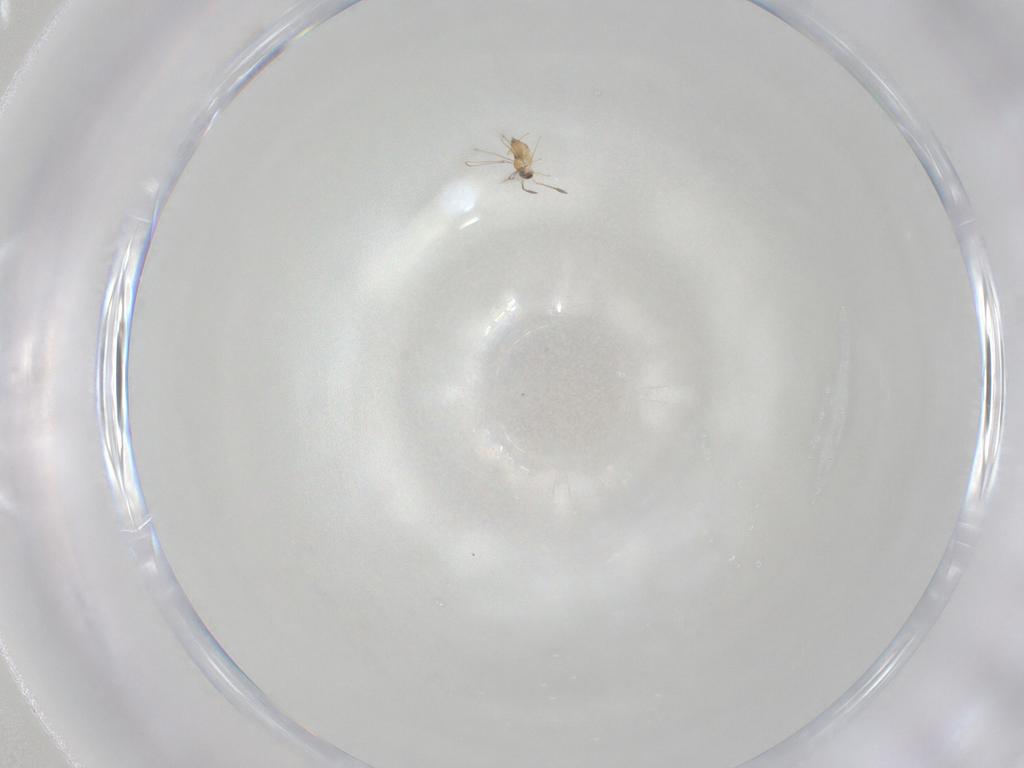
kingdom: Animalia
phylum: Arthropoda
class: Insecta
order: Hymenoptera
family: Mymaridae
